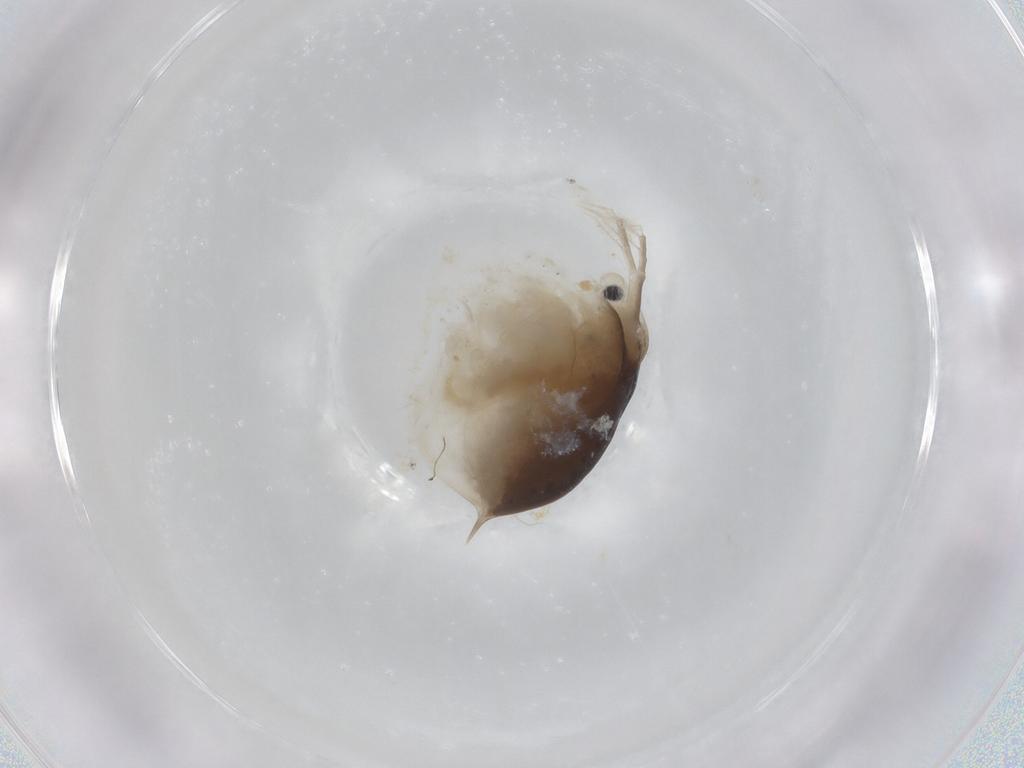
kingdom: Animalia
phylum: Arthropoda
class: Branchiopoda
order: Diplostraca
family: Daphniidae
